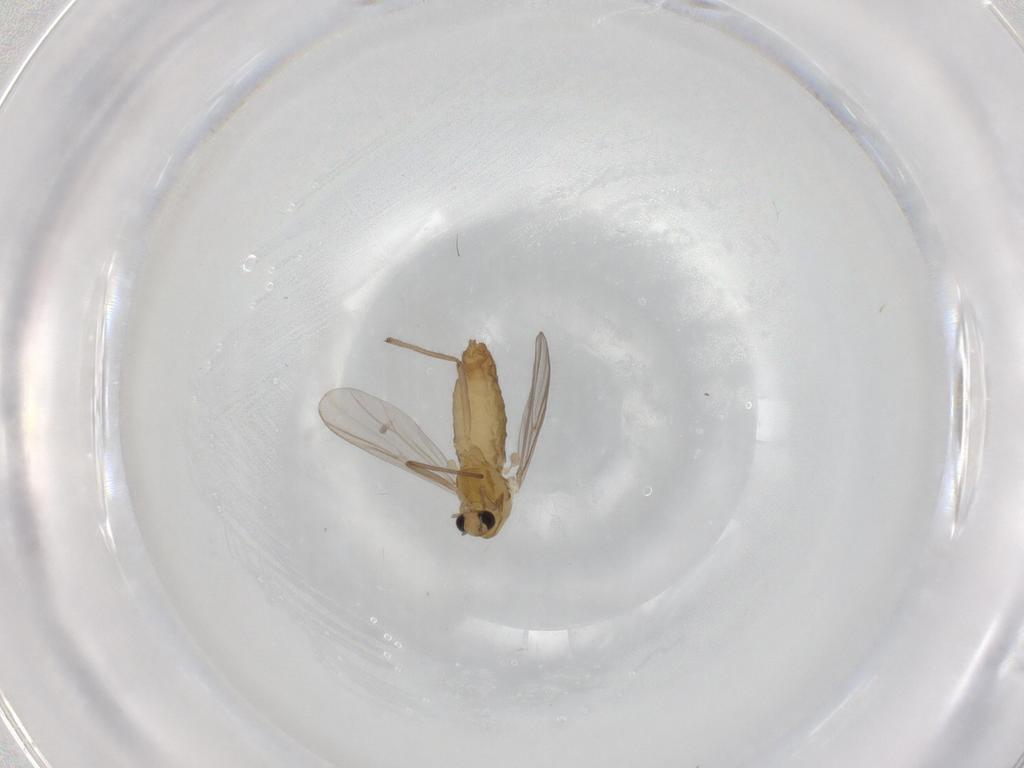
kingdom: Animalia
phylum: Arthropoda
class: Insecta
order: Diptera
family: Chironomidae
